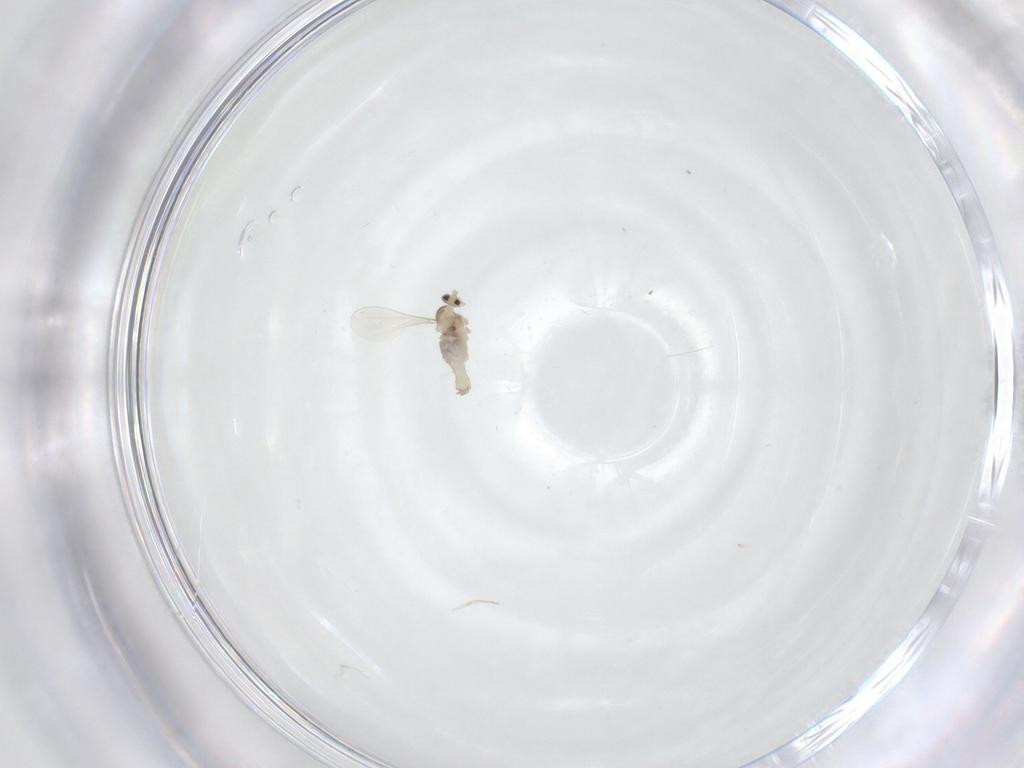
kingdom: Animalia
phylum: Arthropoda
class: Insecta
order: Diptera
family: Cecidomyiidae
